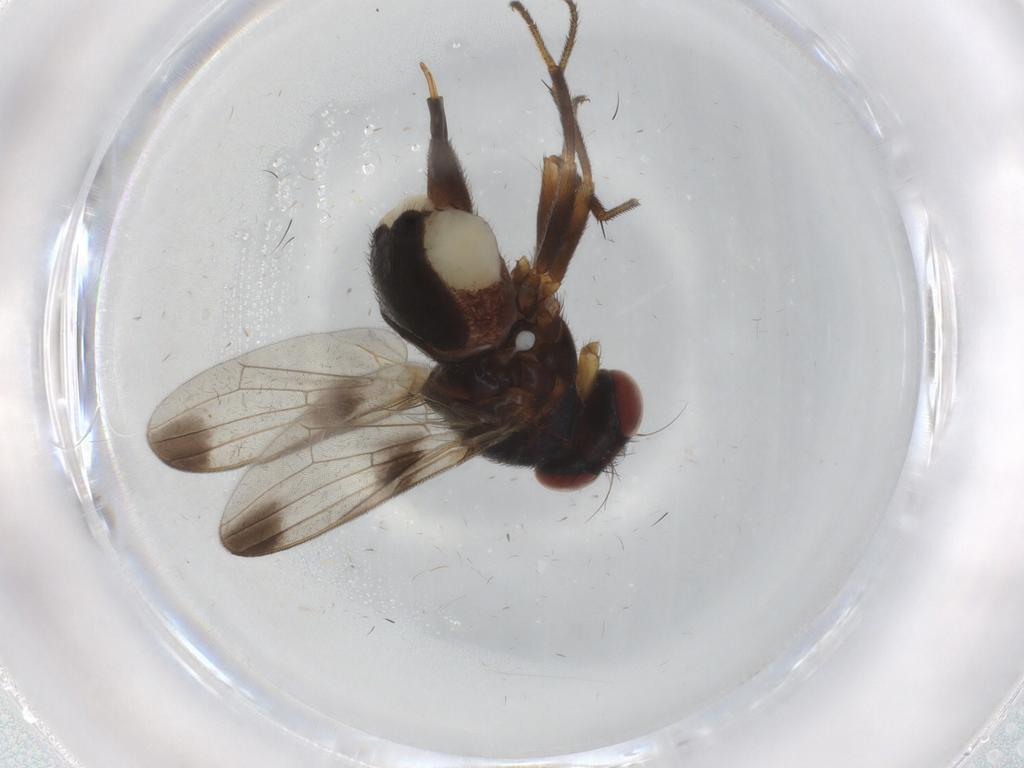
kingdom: Animalia
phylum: Arthropoda
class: Insecta
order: Diptera
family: Ulidiidae
